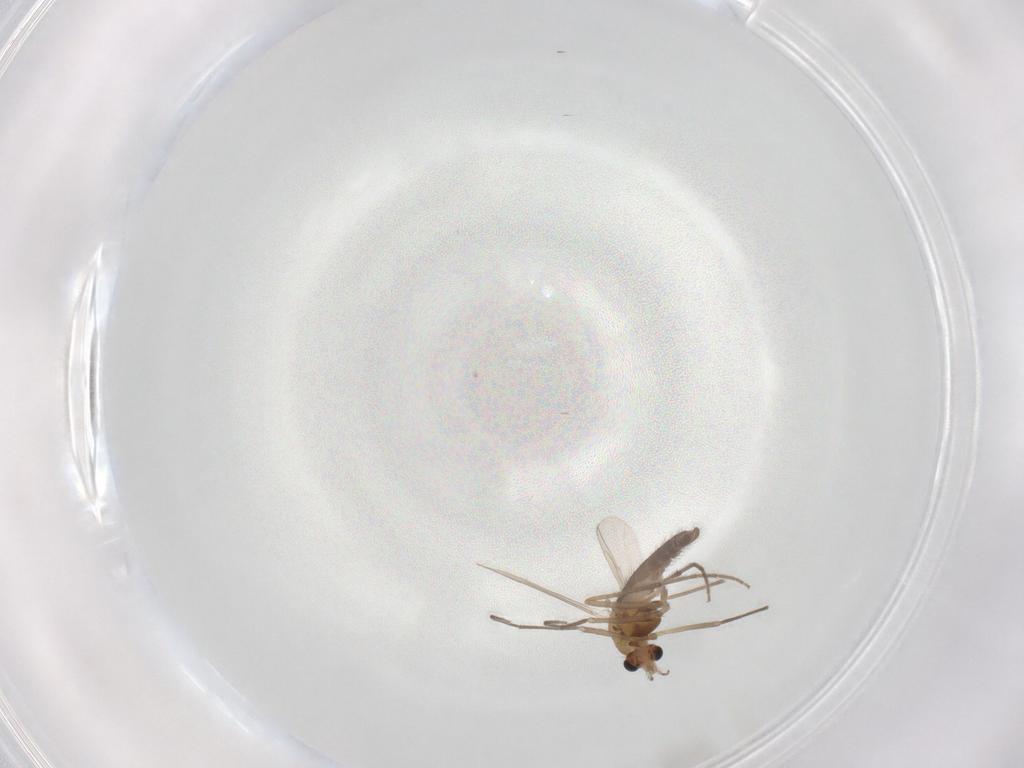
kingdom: Animalia
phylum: Arthropoda
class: Insecta
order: Diptera
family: Chironomidae
